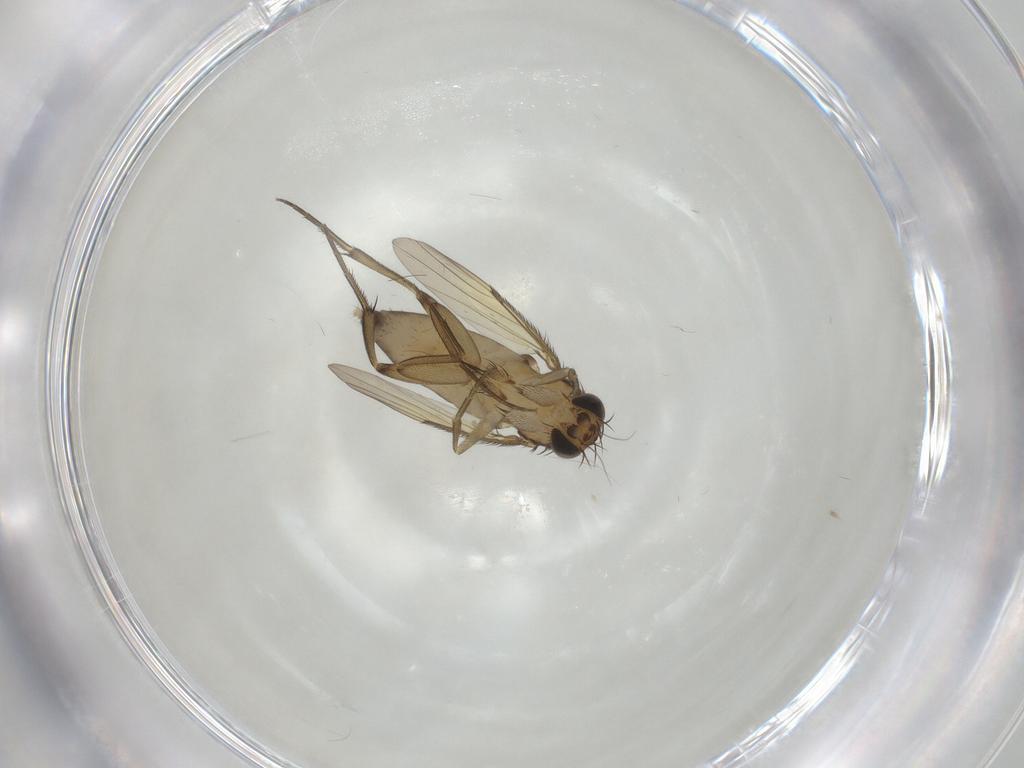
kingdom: Animalia
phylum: Arthropoda
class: Insecta
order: Diptera
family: Phoridae
